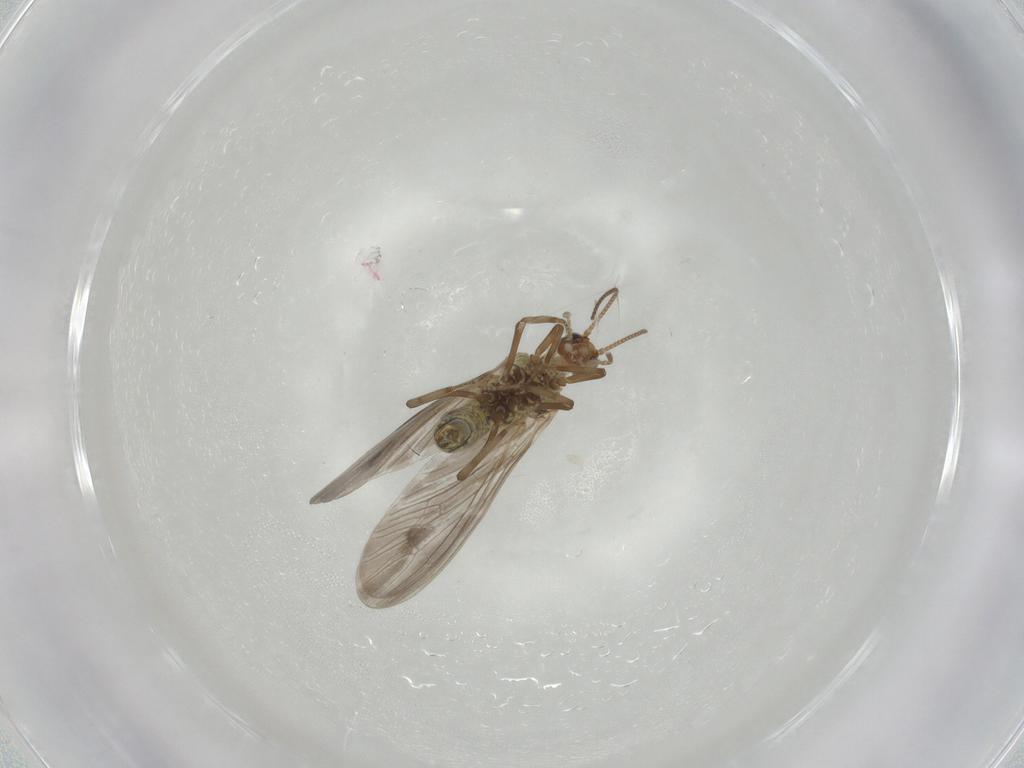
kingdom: Animalia
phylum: Arthropoda
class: Insecta
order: Neuroptera
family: Coniopterygidae
